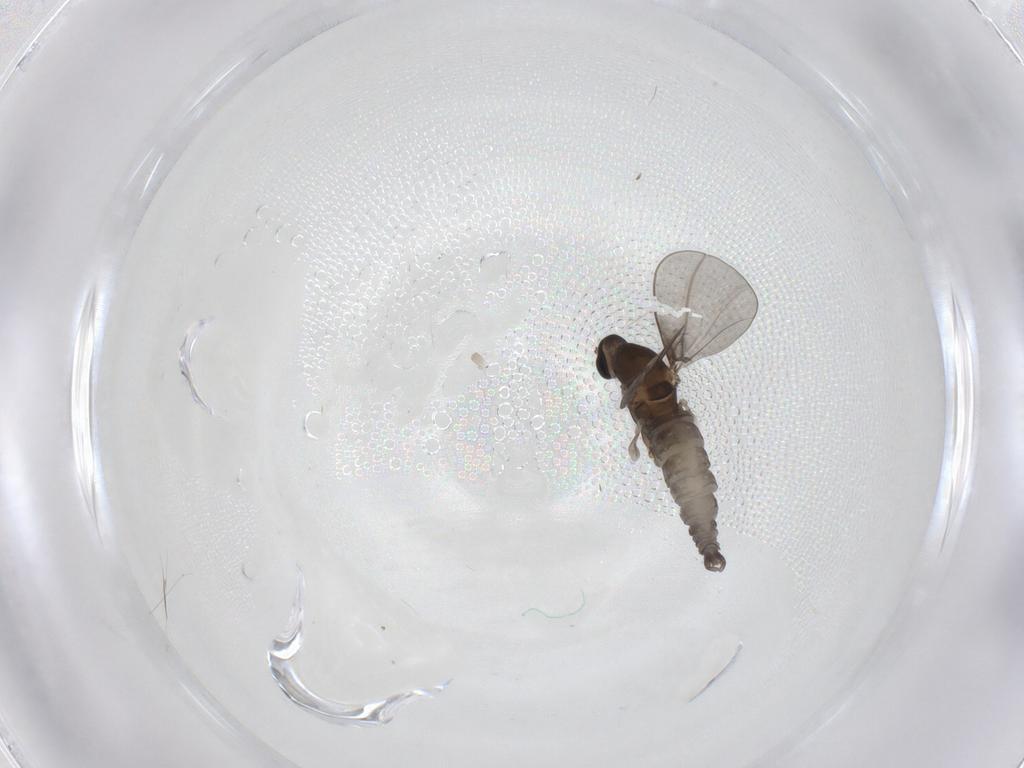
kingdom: Animalia
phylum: Arthropoda
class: Insecta
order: Diptera
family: Cecidomyiidae
